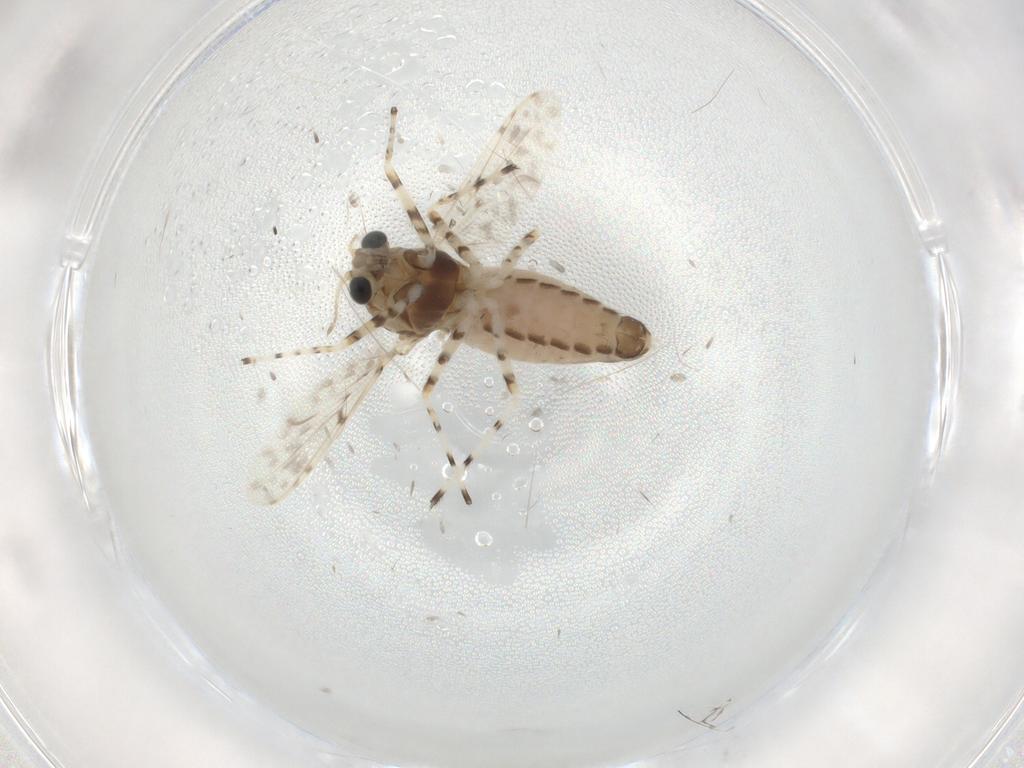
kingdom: Animalia
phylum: Arthropoda
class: Insecta
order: Diptera
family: Chironomidae
